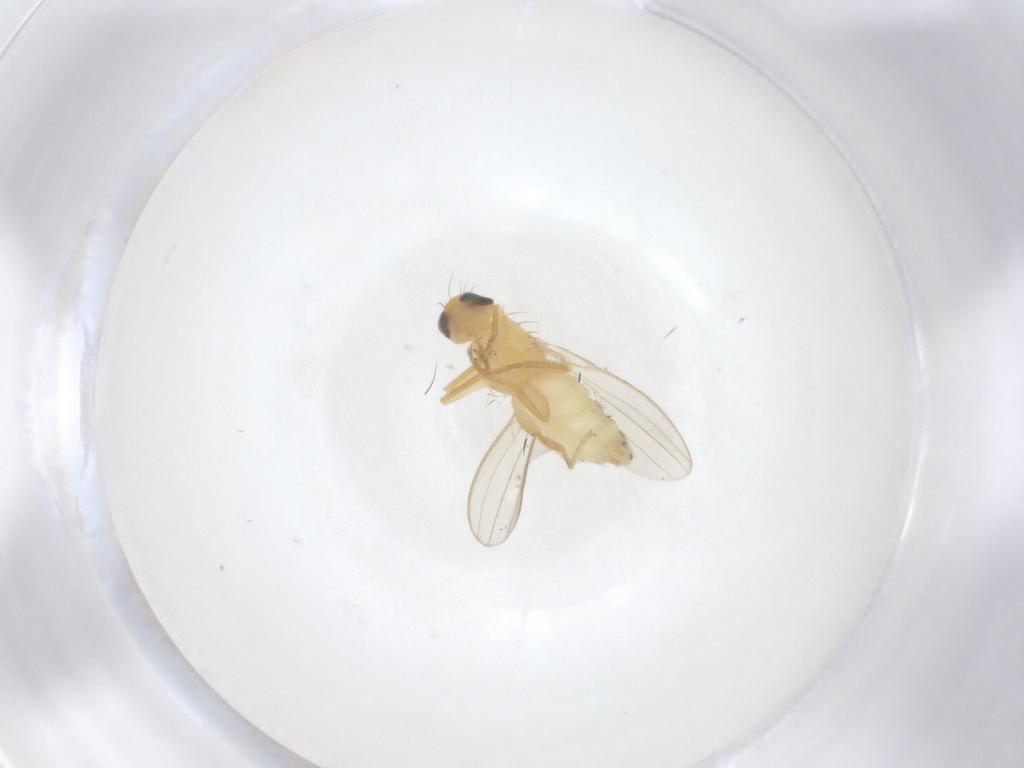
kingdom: Animalia
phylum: Arthropoda
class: Insecta
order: Diptera
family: Chyromyidae
